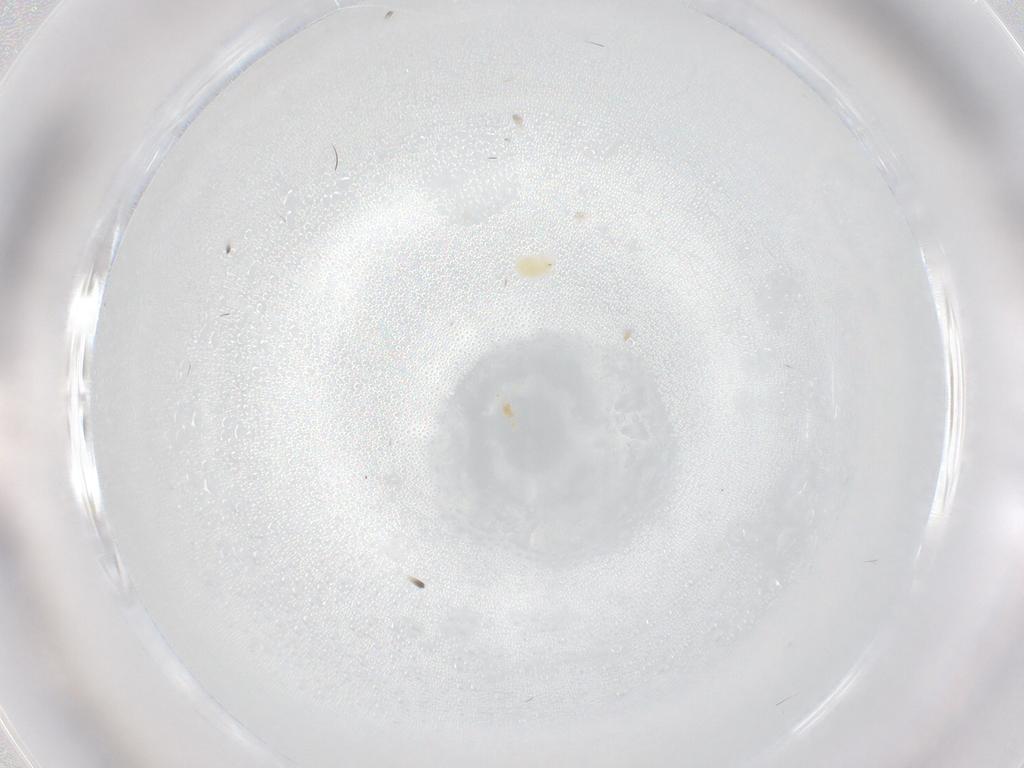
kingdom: Animalia
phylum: Arthropoda
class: Arachnida
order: Trombidiformes
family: Tetranychidae
